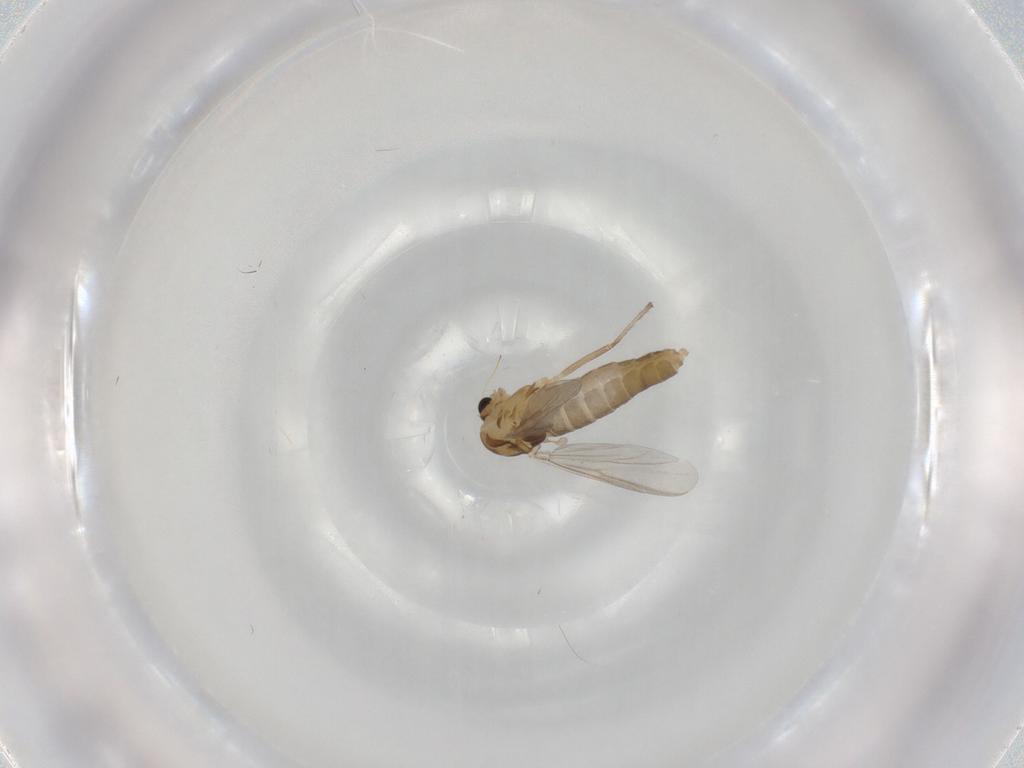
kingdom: Animalia
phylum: Arthropoda
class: Insecta
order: Diptera
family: Chironomidae
